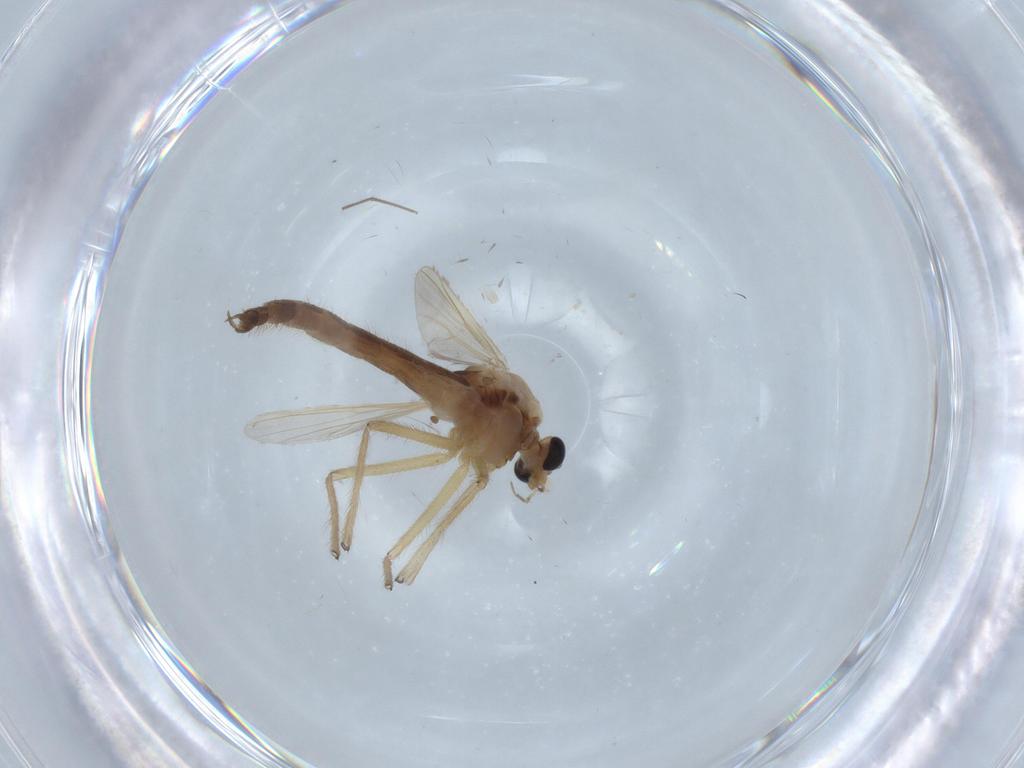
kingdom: Animalia
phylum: Arthropoda
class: Insecta
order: Diptera
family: Chironomidae
